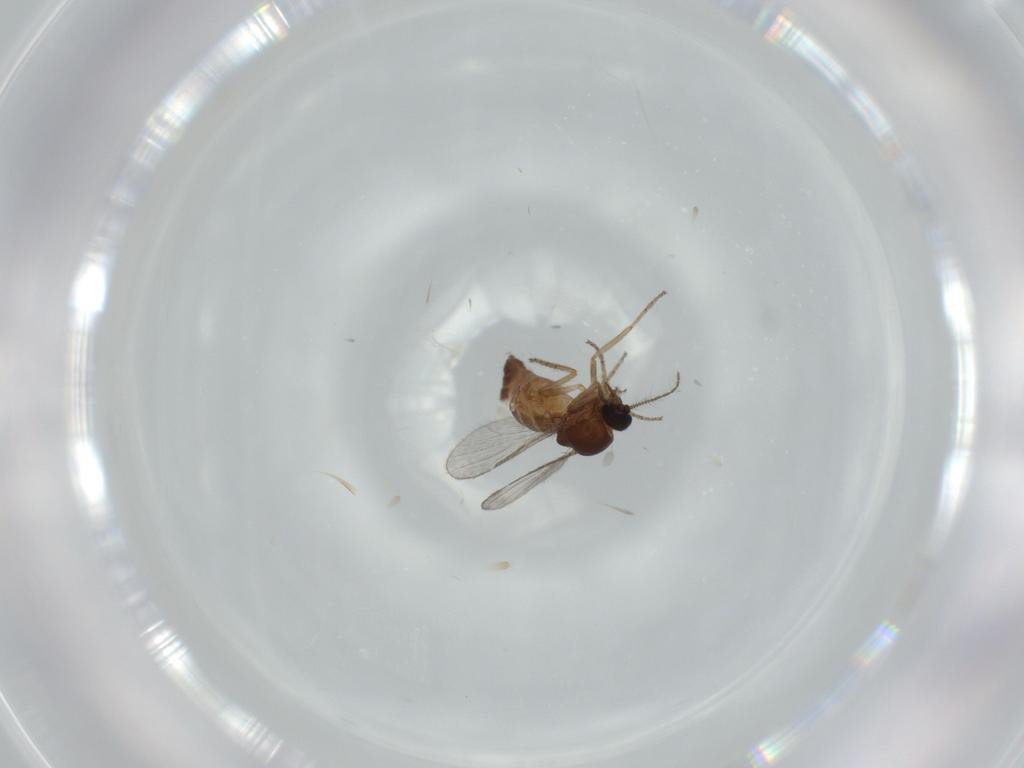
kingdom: Animalia
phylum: Arthropoda
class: Insecta
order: Diptera
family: Ceratopogonidae
